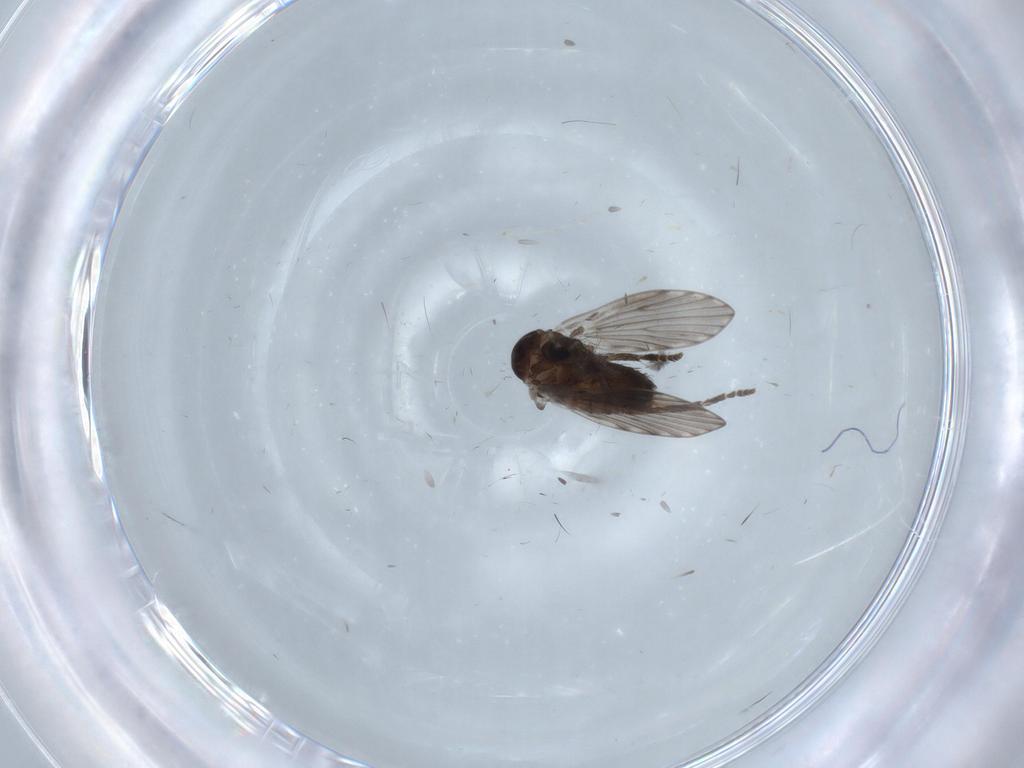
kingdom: Animalia
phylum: Arthropoda
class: Insecta
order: Diptera
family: Psychodidae
